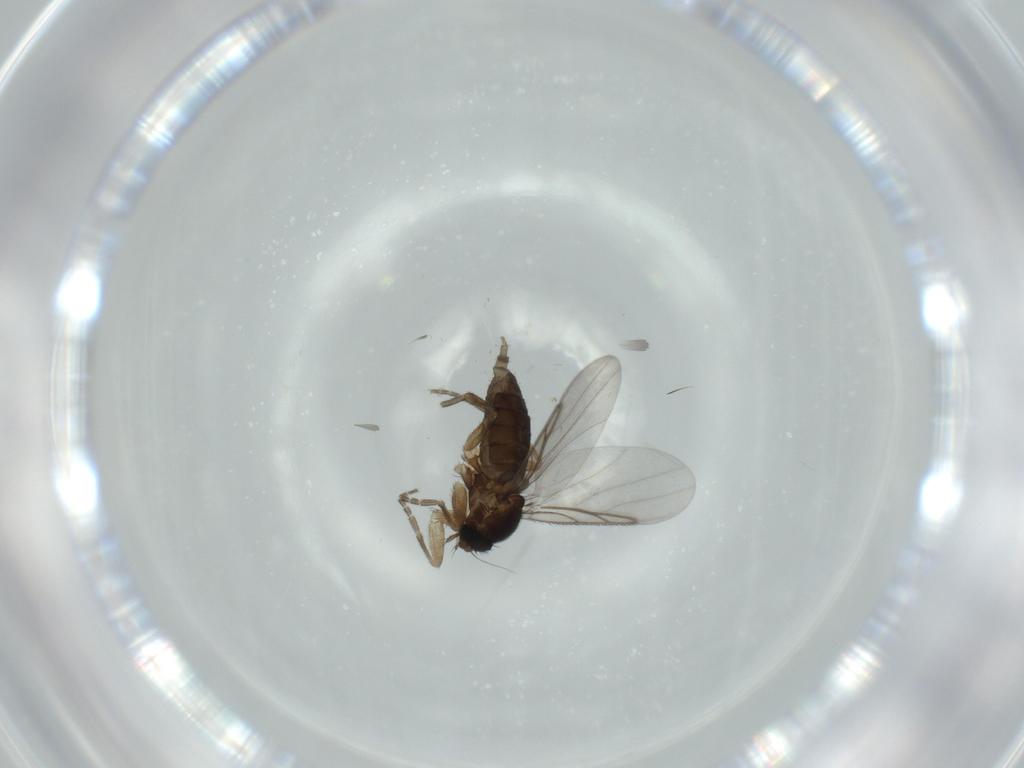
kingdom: Animalia
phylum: Arthropoda
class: Insecta
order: Diptera
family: Phoridae
